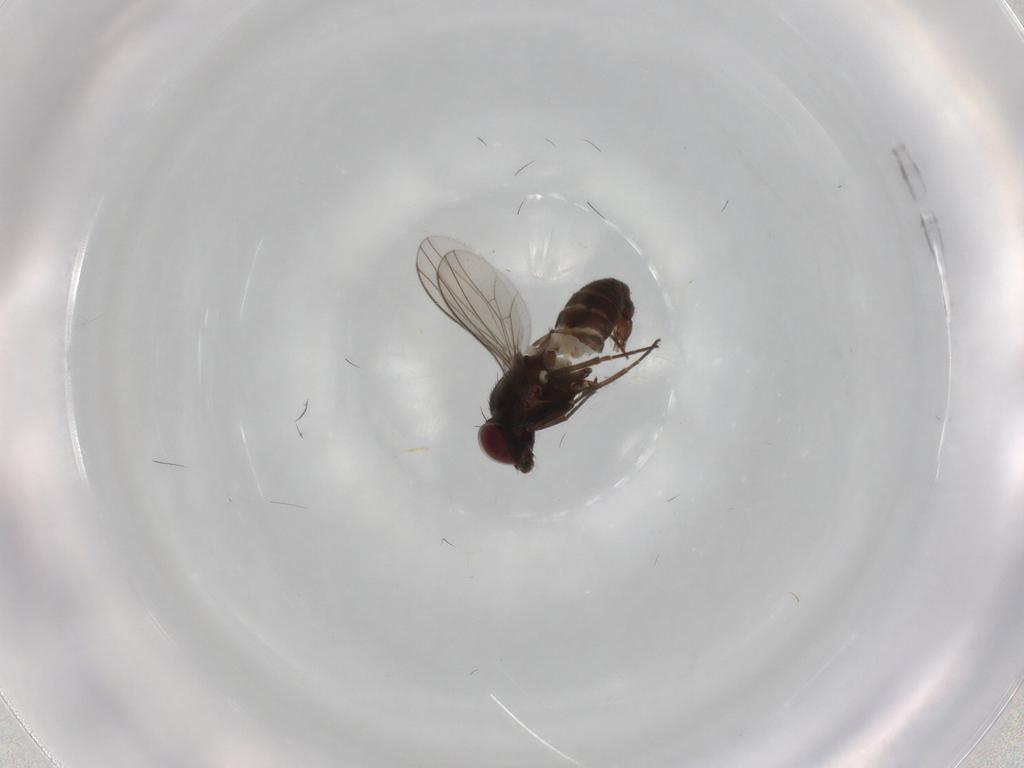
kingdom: Animalia
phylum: Arthropoda
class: Insecta
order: Diptera
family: Dolichopodidae
